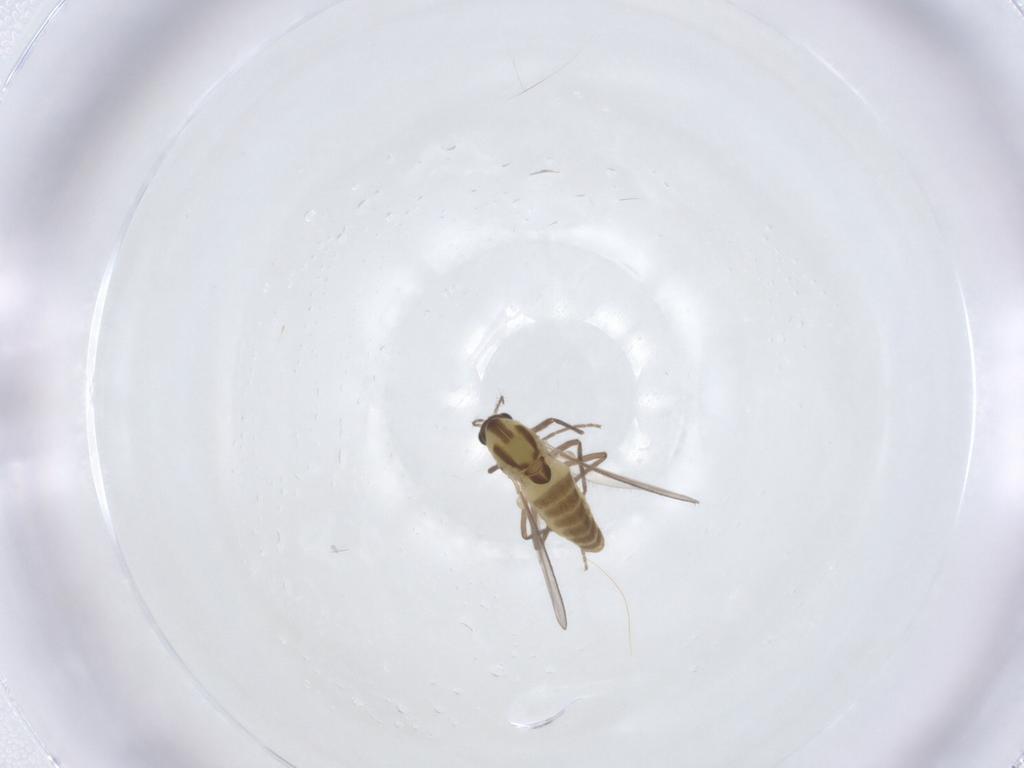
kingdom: Animalia
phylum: Arthropoda
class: Insecta
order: Diptera
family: Chironomidae
